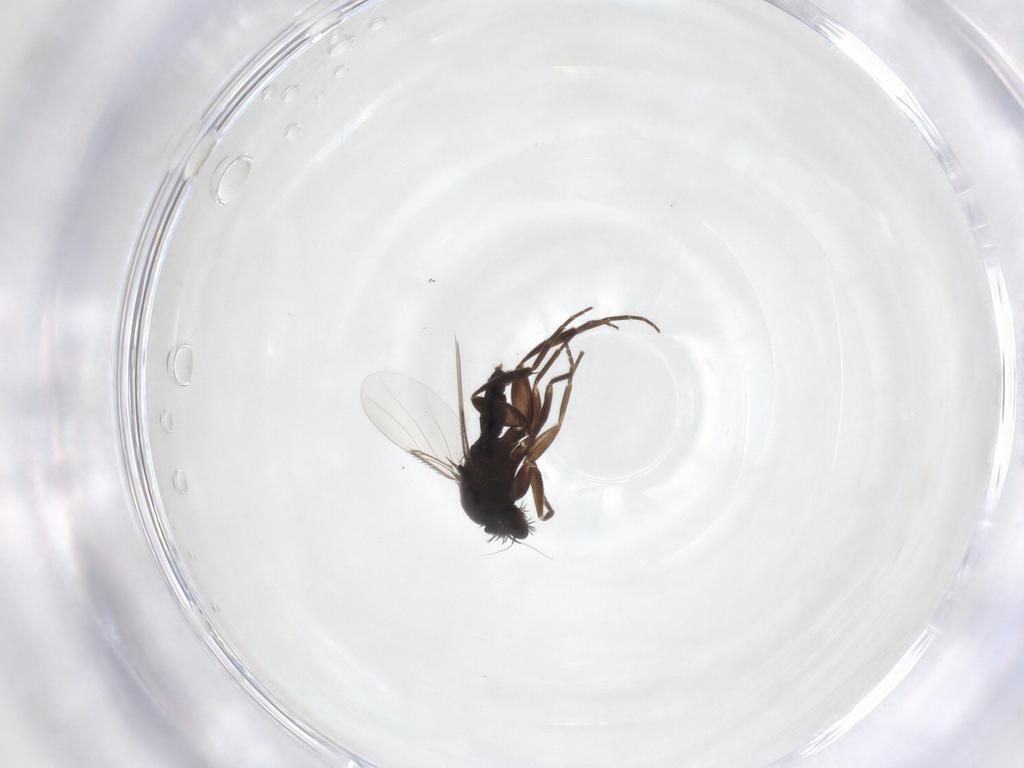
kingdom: Animalia
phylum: Arthropoda
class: Insecta
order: Diptera
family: Phoridae
